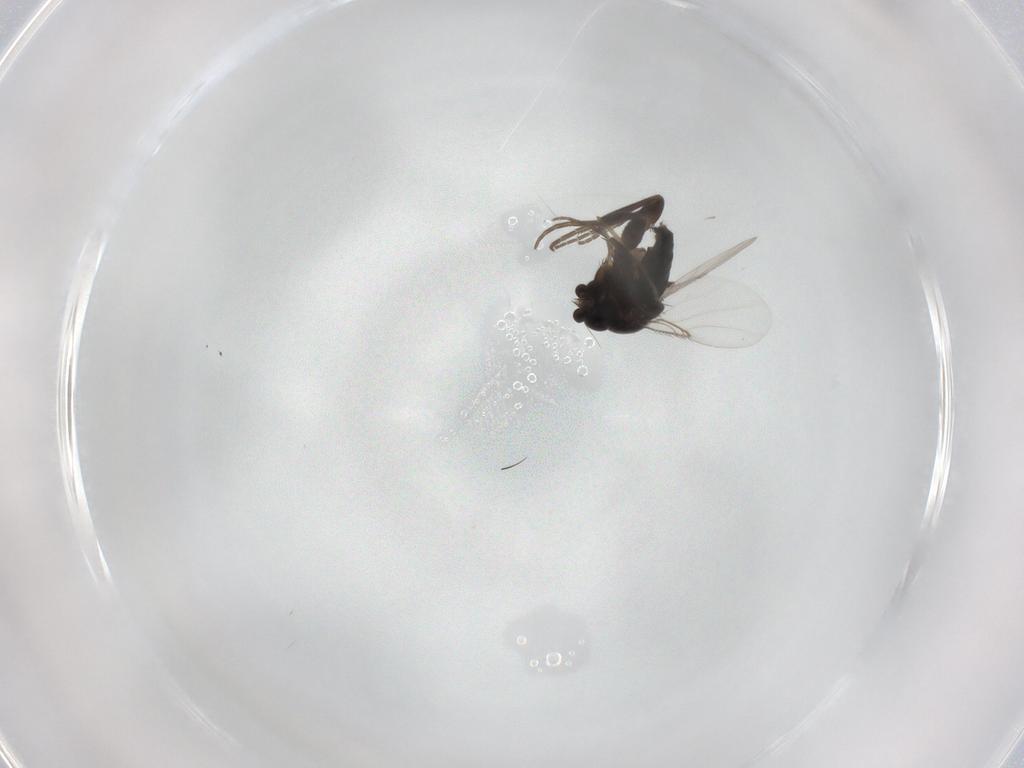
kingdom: Animalia
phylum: Arthropoda
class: Insecta
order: Diptera
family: Phoridae
